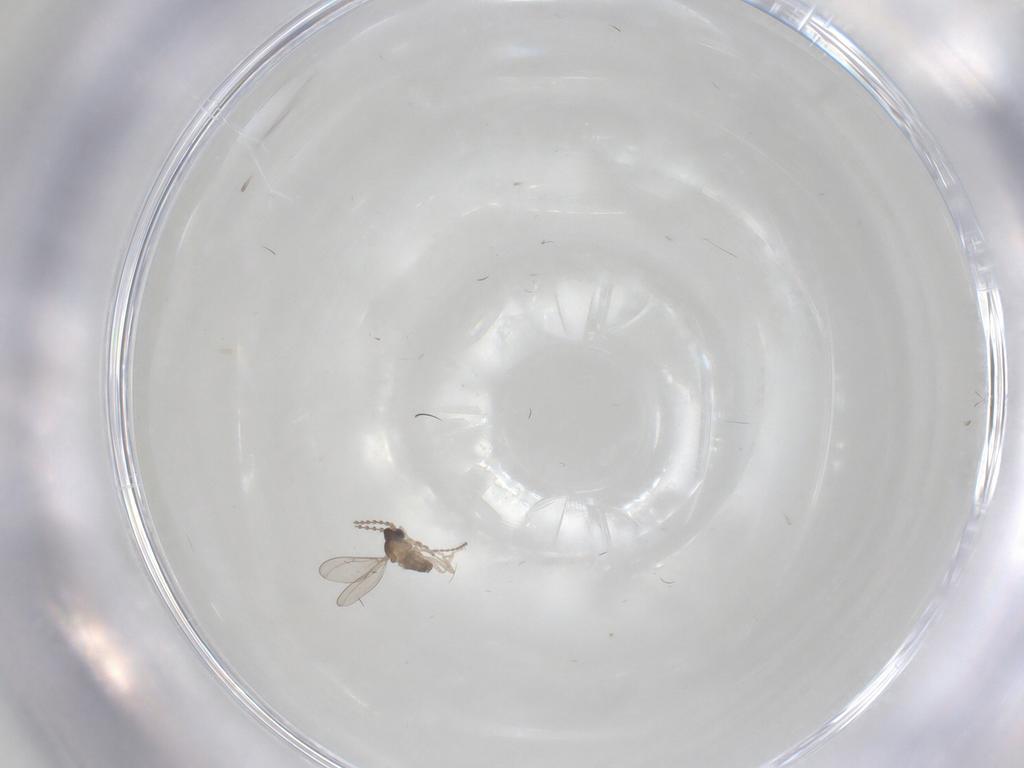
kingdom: Animalia
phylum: Arthropoda
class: Insecta
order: Diptera
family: Cecidomyiidae
